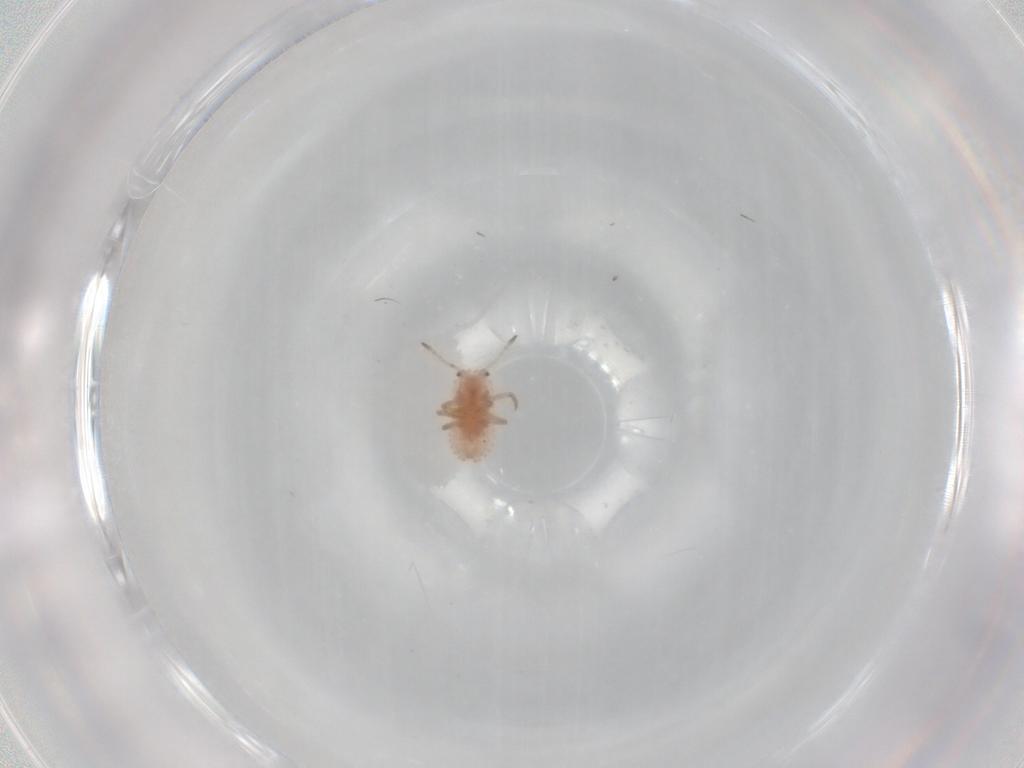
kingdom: Animalia
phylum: Arthropoda
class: Insecta
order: Hemiptera
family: Coccoidea_incertae_sedis
